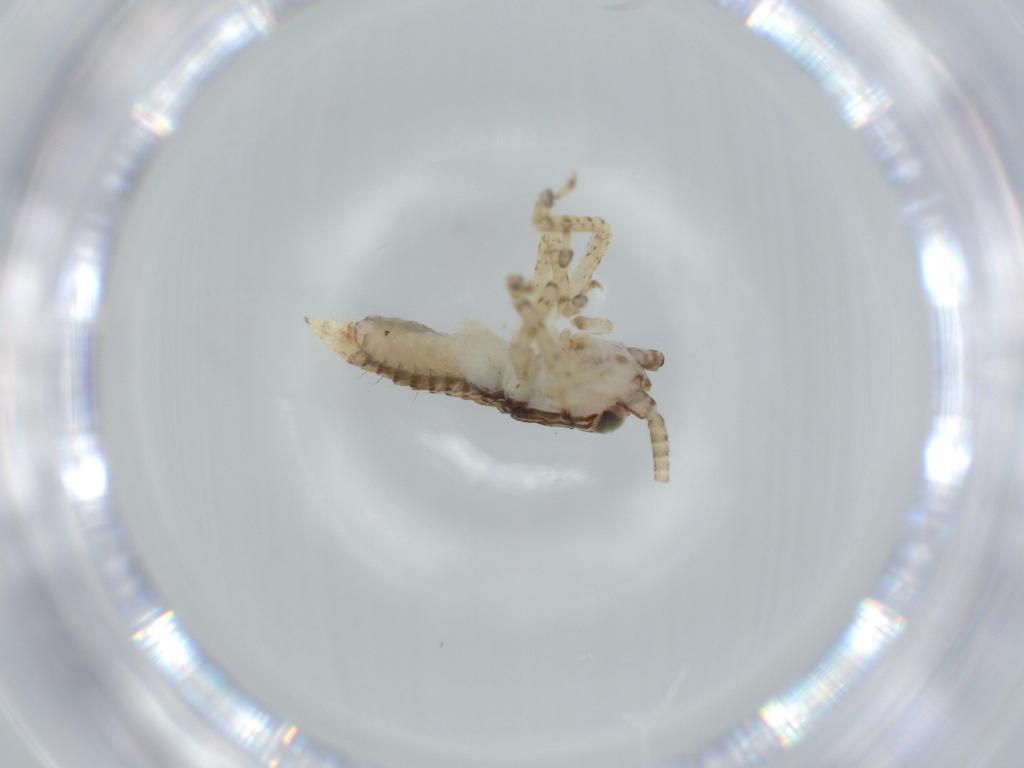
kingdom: Animalia
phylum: Arthropoda
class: Insecta
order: Orthoptera
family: Gryllidae
